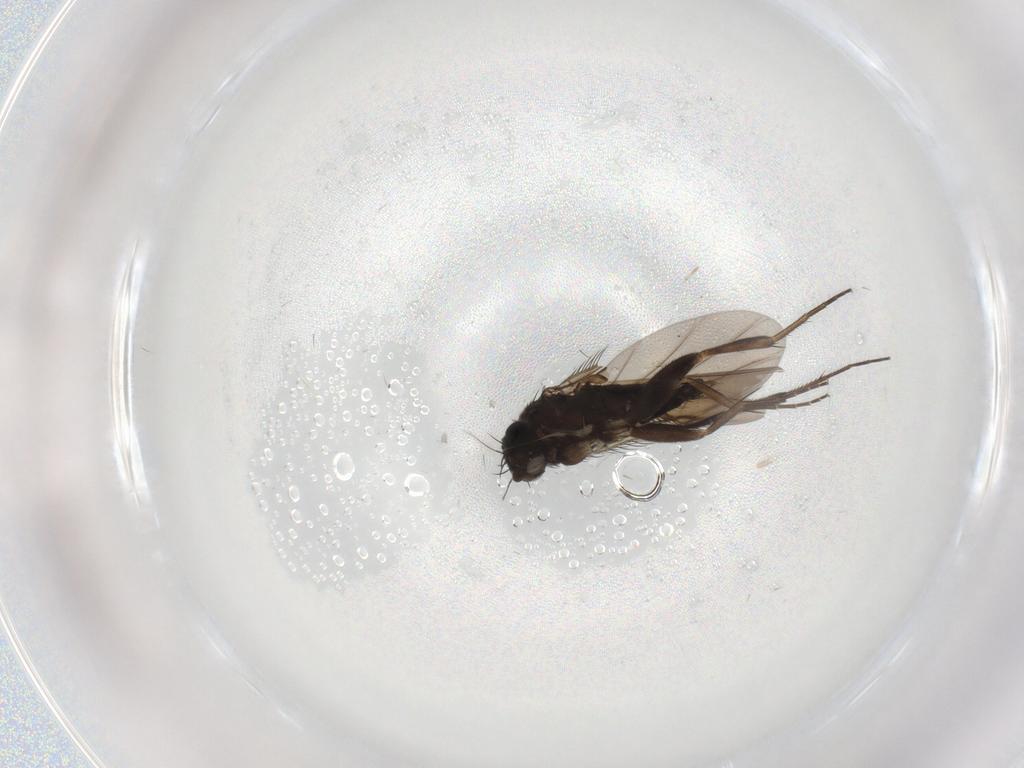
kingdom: Animalia
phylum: Arthropoda
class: Insecta
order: Diptera
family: Phoridae
